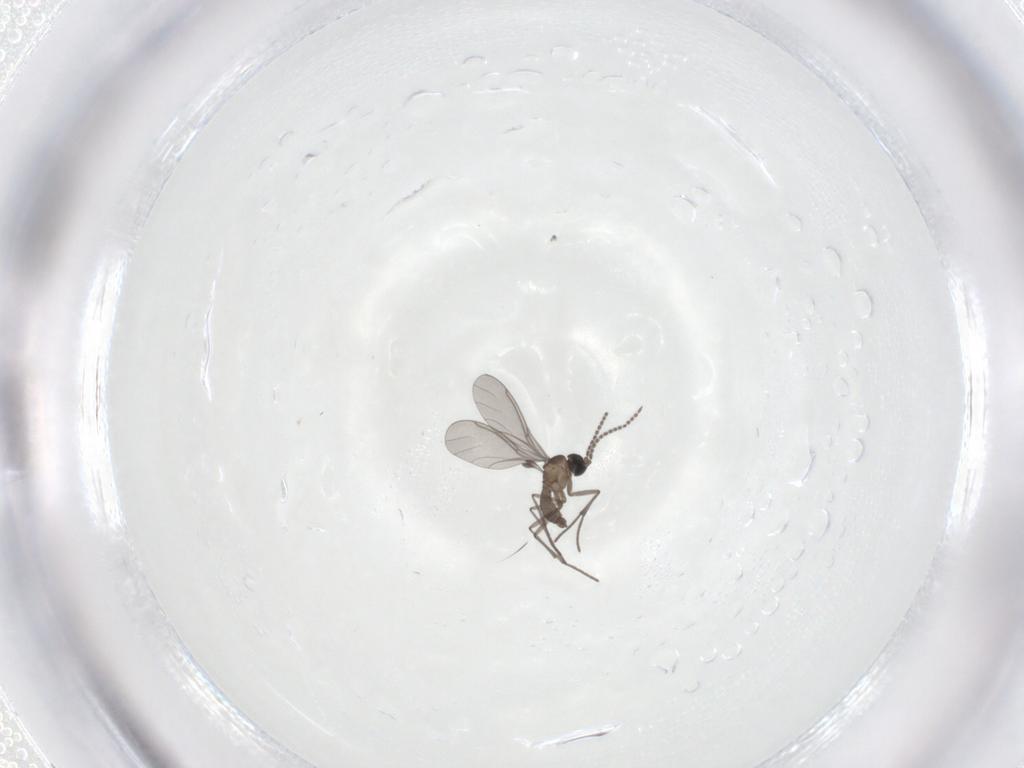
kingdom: Animalia
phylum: Arthropoda
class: Insecta
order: Diptera
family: Sciaridae
